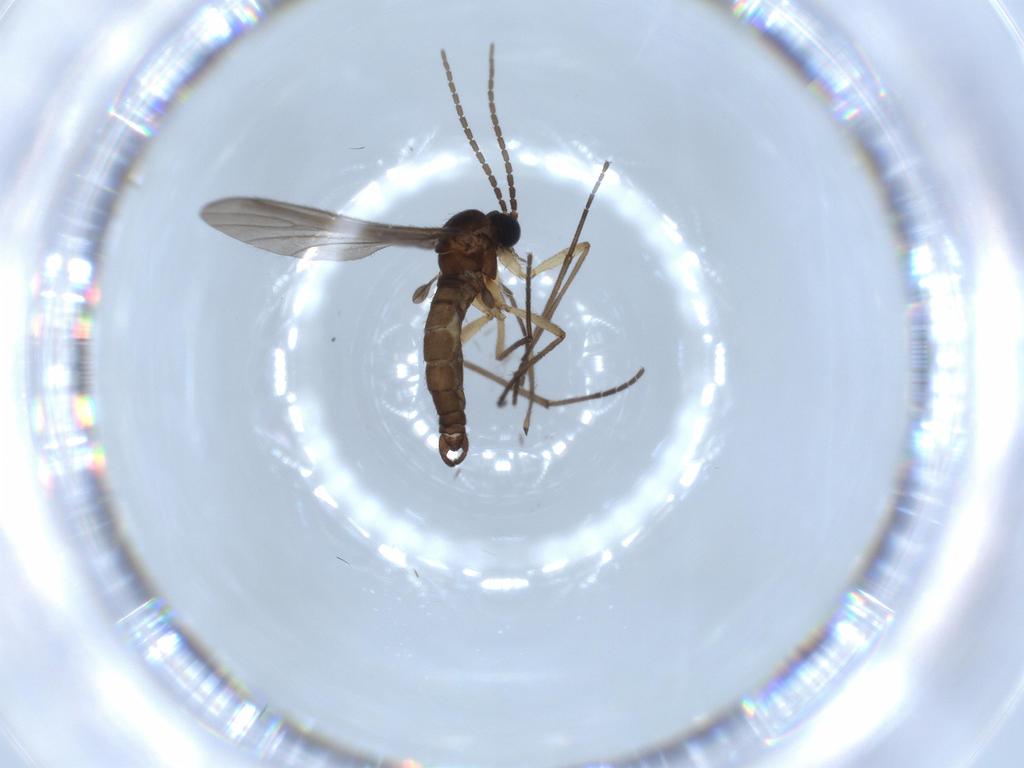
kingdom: Animalia
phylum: Arthropoda
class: Insecta
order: Diptera
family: Sciaridae
